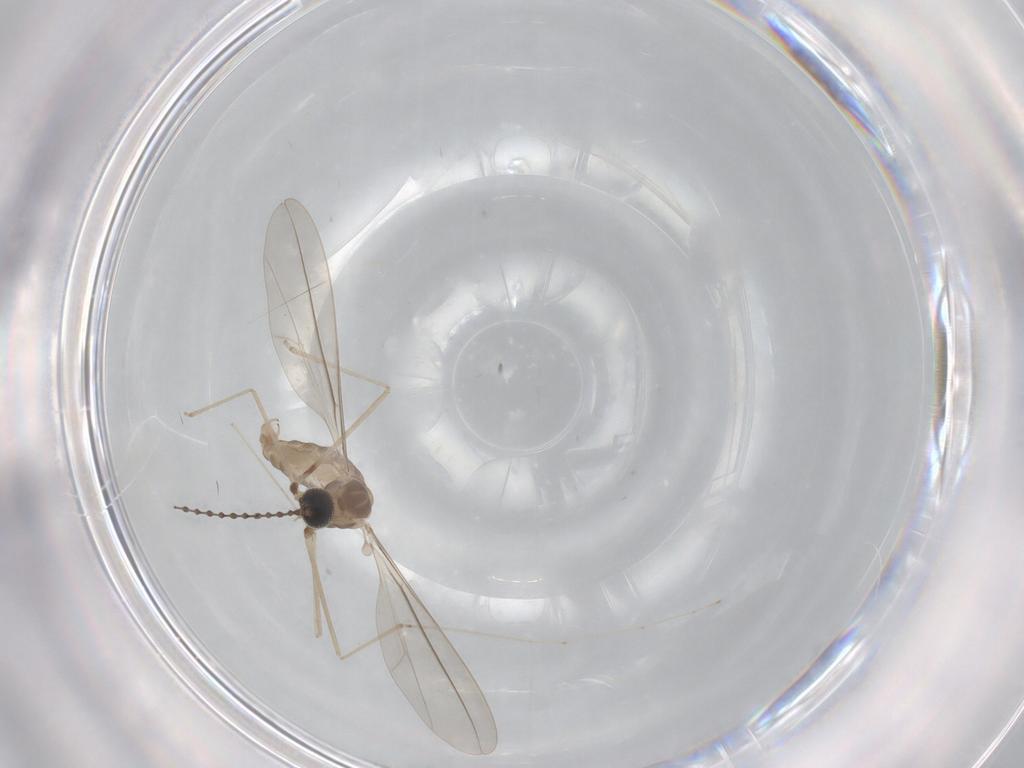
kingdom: Animalia
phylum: Arthropoda
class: Insecta
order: Diptera
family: Cecidomyiidae
